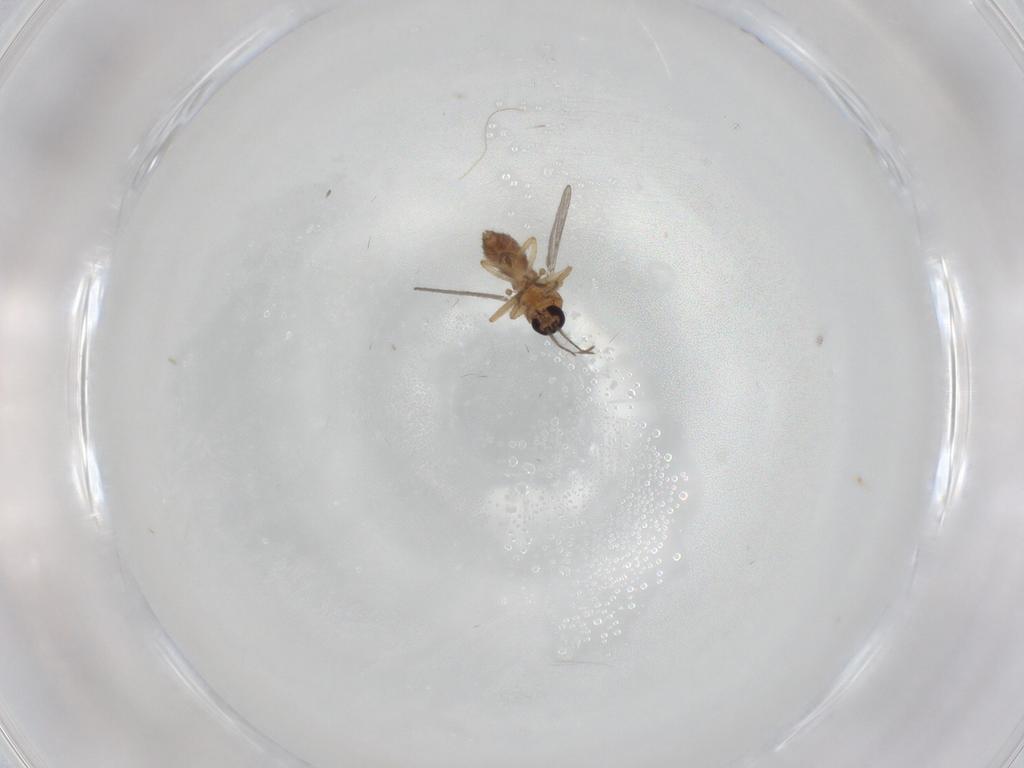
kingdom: Animalia
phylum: Arthropoda
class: Insecta
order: Diptera
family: Ceratopogonidae
